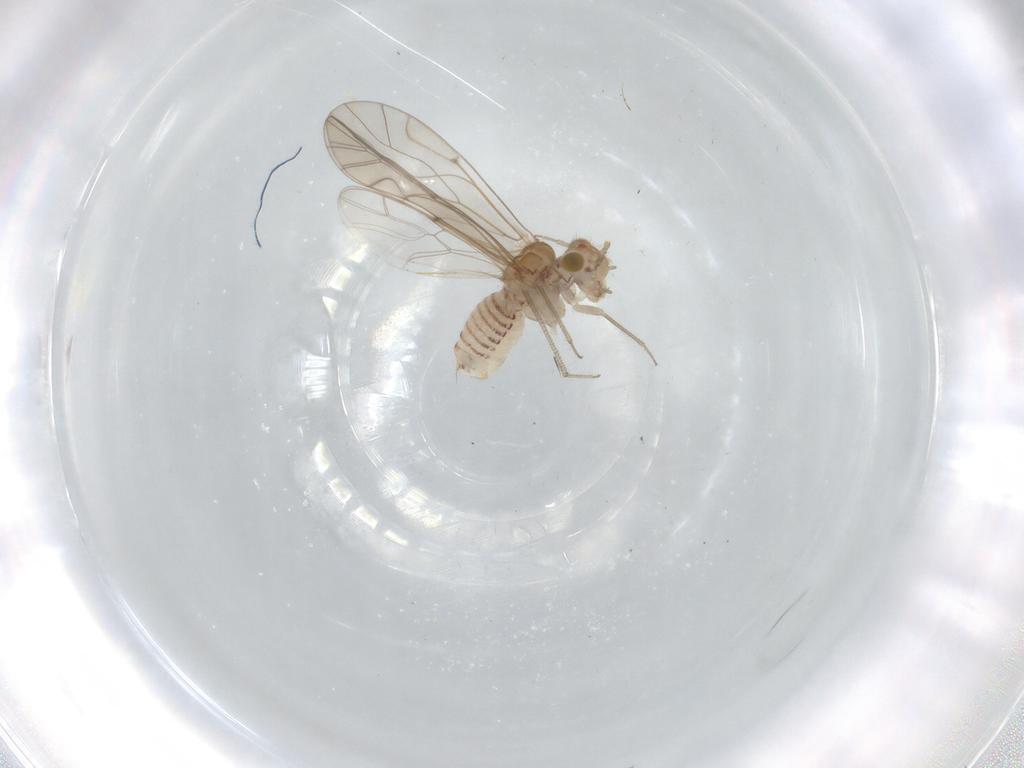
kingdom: Animalia
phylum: Arthropoda
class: Insecta
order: Psocodea
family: Lachesillidae
